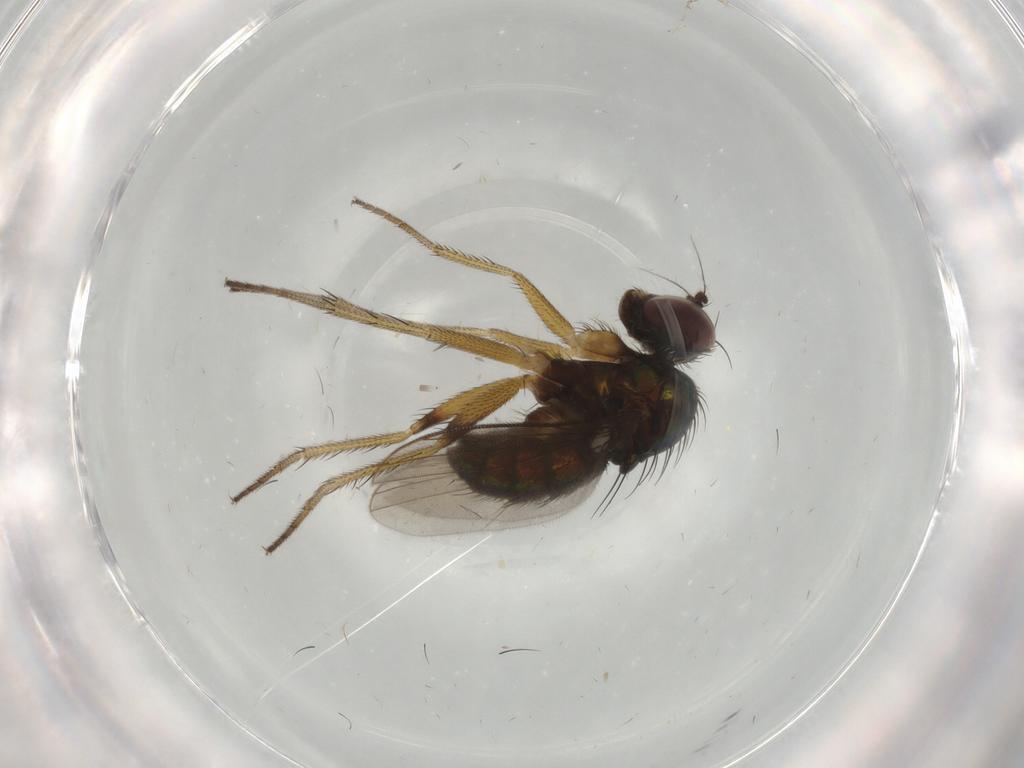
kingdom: Animalia
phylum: Arthropoda
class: Insecta
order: Diptera
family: Dolichopodidae
